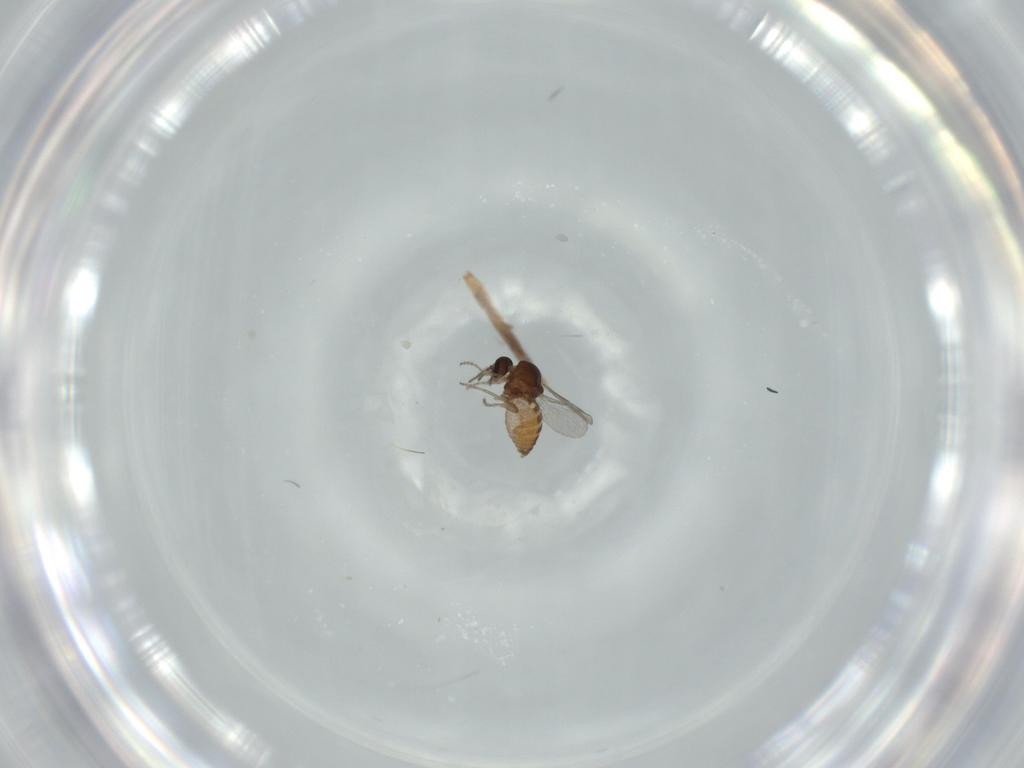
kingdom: Animalia
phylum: Arthropoda
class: Insecta
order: Diptera
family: Ceratopogonidae
